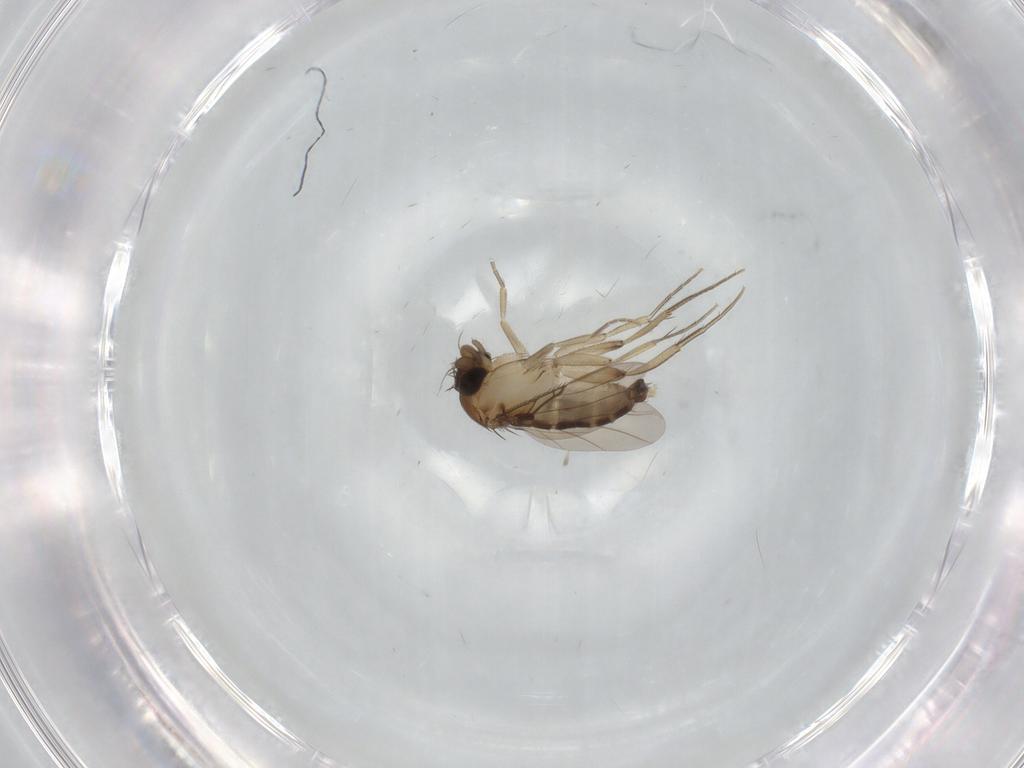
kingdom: Animalia
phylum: Arthropoda
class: Insecta
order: Diptera
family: Phoridae
